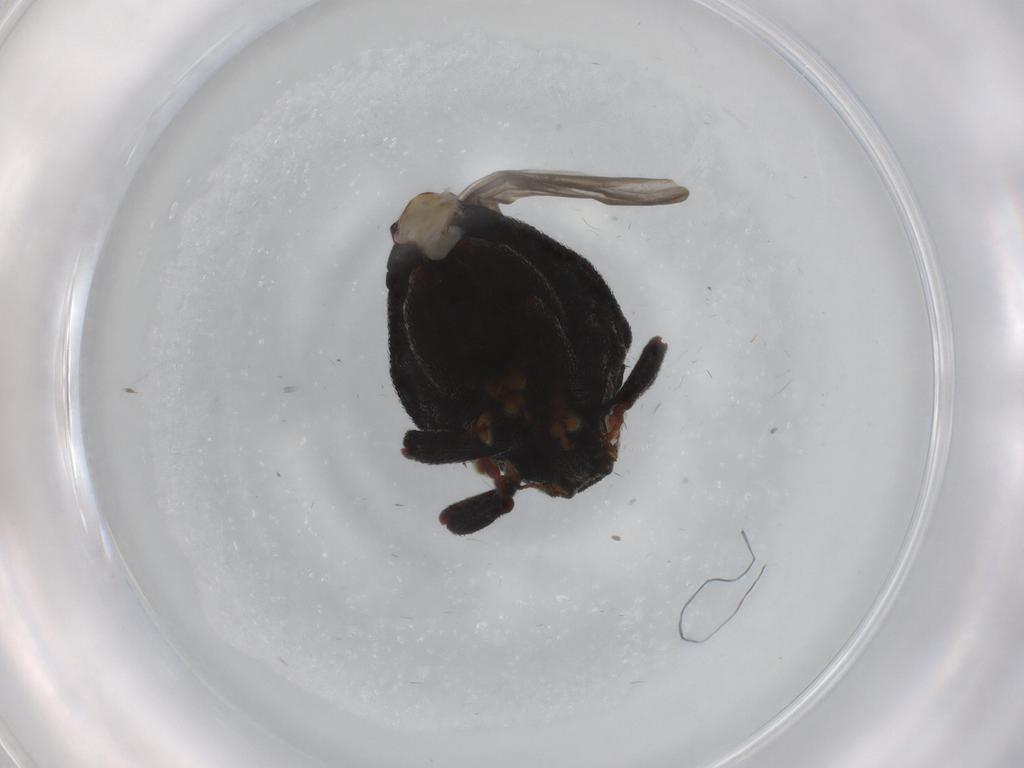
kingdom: Animalia
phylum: Arthropoda
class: Insecta
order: Coleoptera
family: Curculionidae
